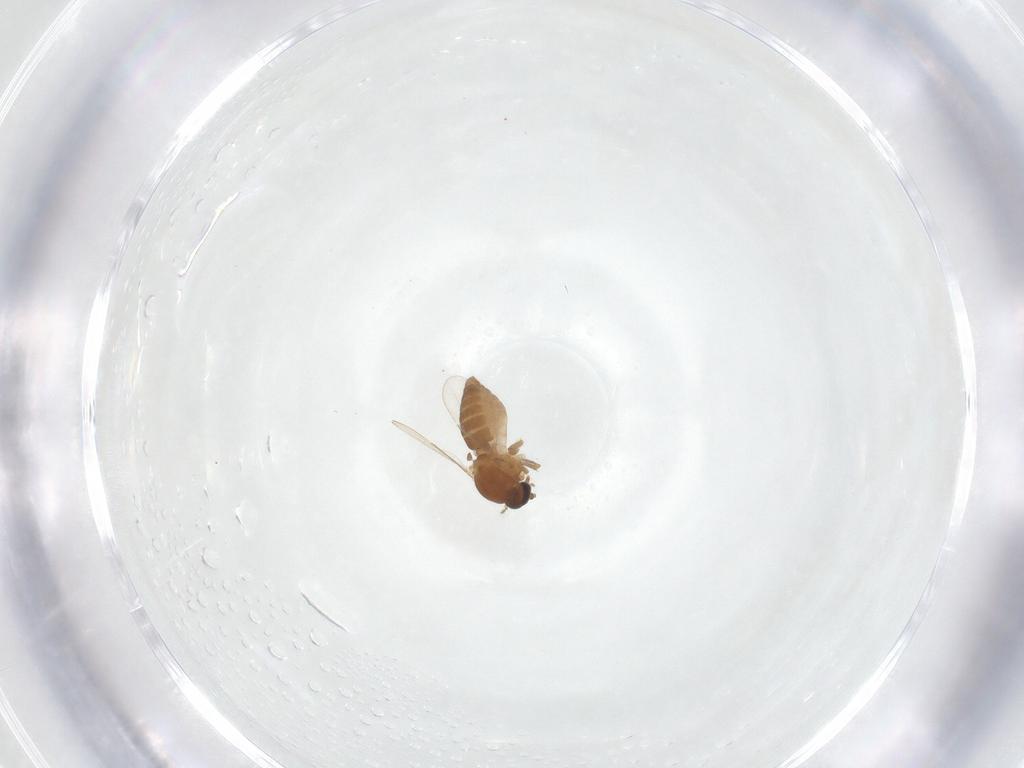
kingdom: Animalia
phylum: Arthropoda
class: Insecta
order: Diptera
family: Ceratopogonidae
